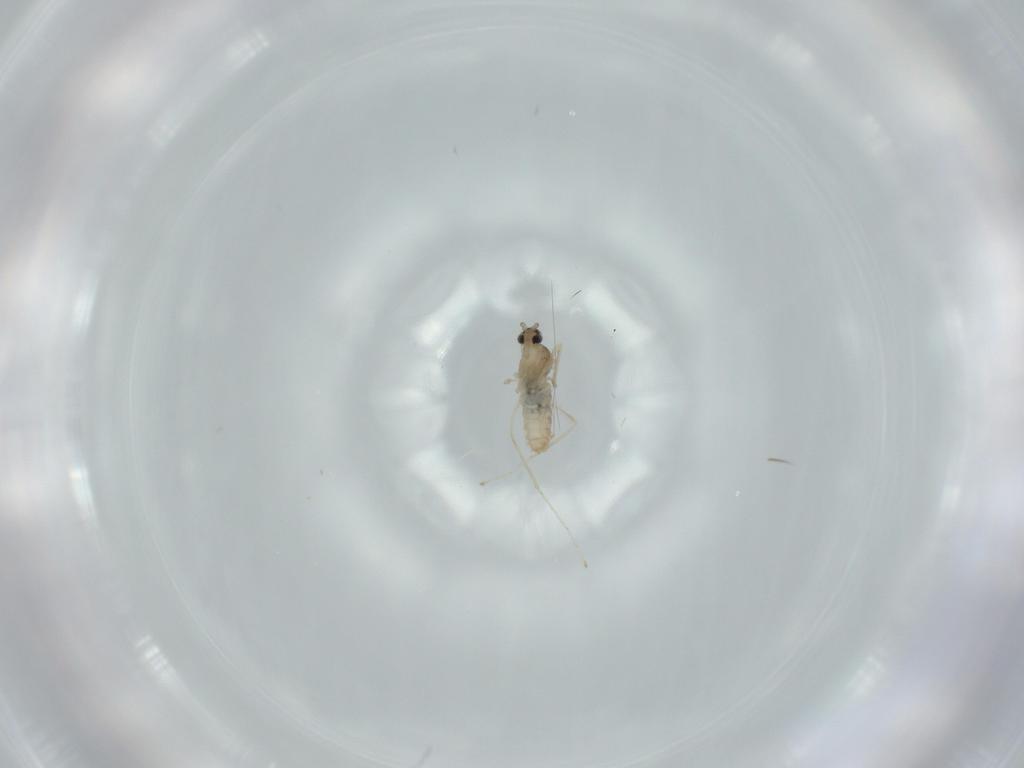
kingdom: Animalia
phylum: Arthropoda
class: Insecta
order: Diptera
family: Cecidomyiidae
